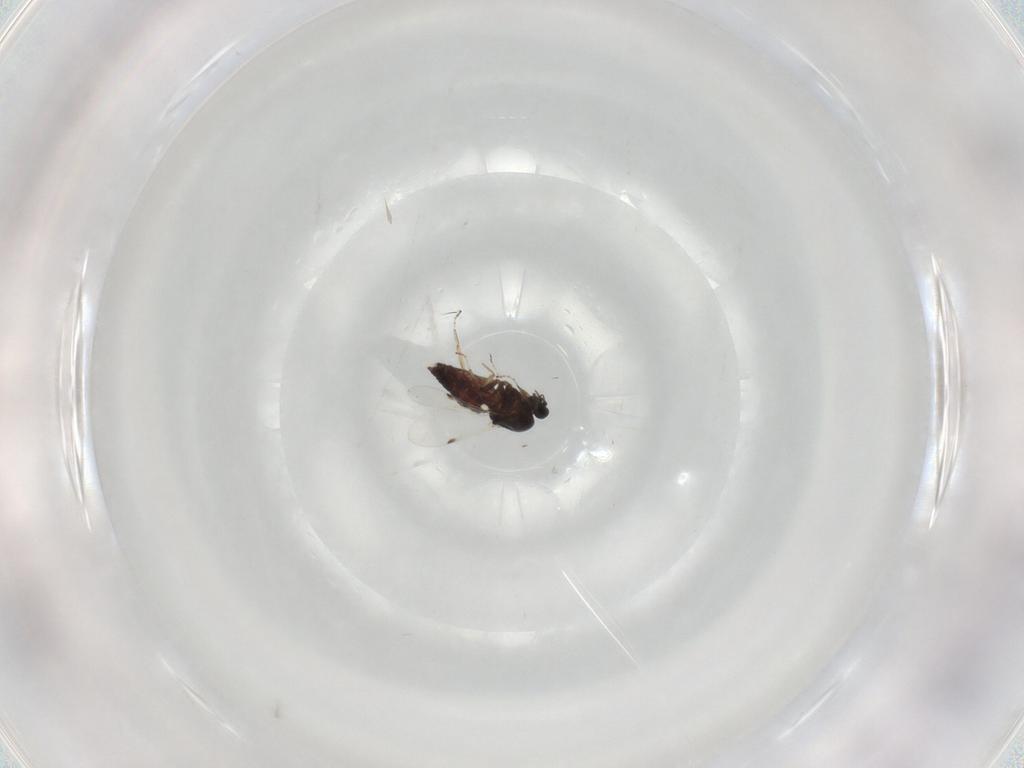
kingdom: Animalia
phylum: Arthropoda
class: Insecta
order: Diptera
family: Ceratopogonidae
